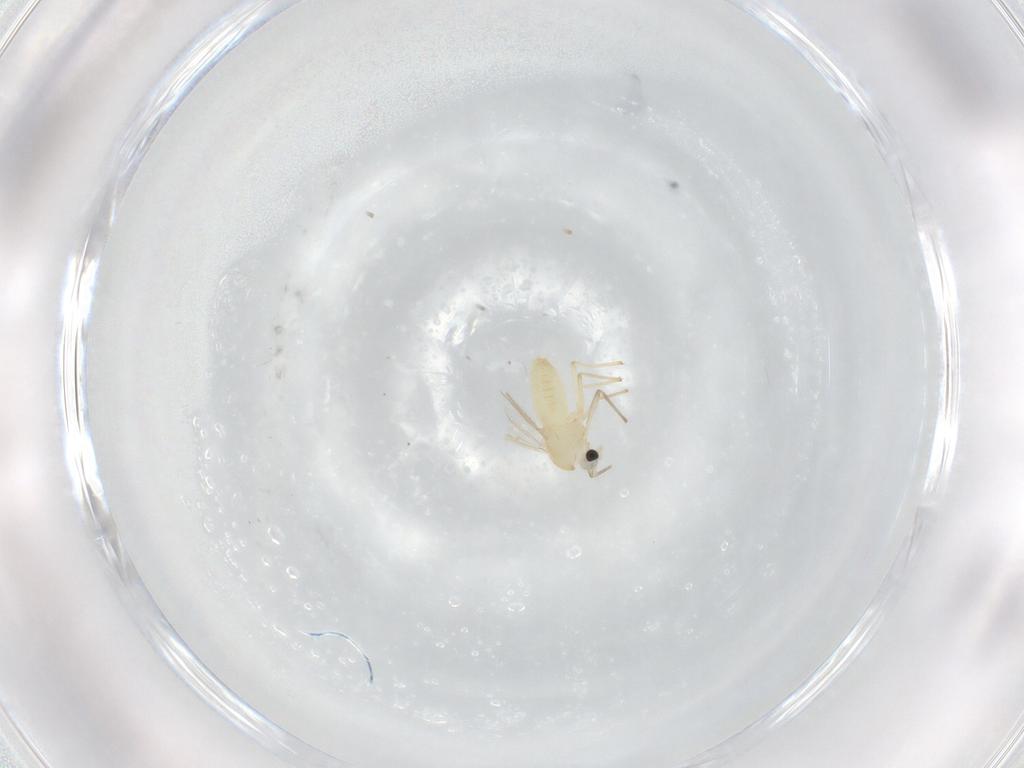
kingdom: Animalia
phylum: Arthropoda
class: Insecta
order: Diptera
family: Chironomidae
